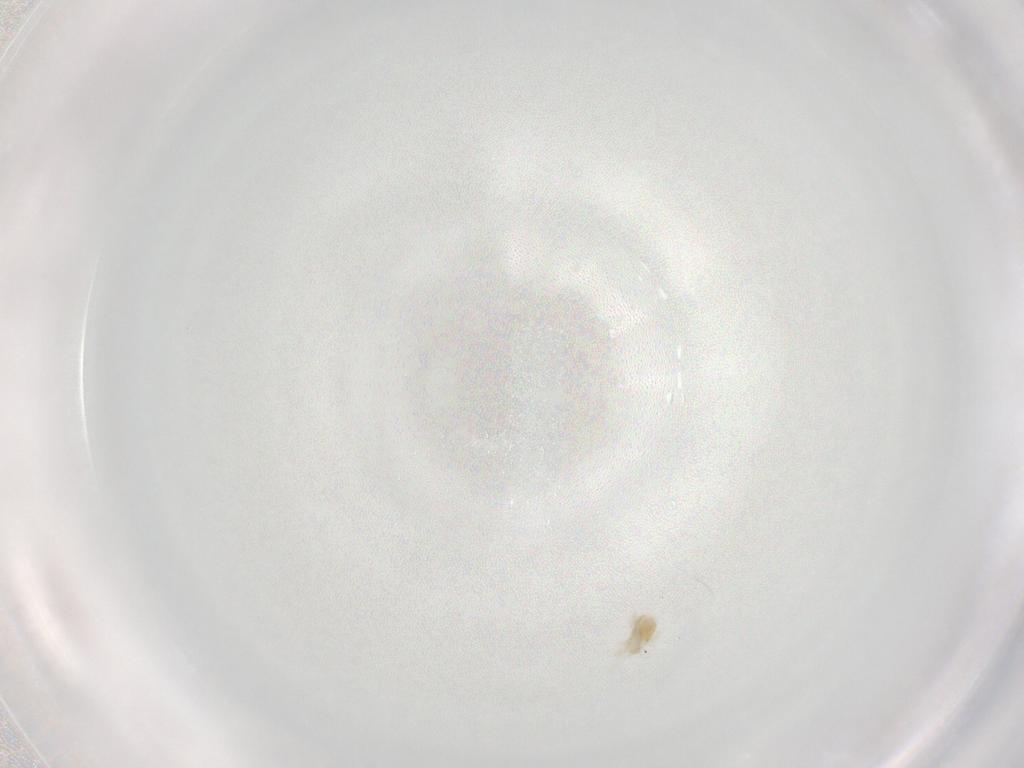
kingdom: Animalia
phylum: Arthropoda
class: Arachnida
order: Trombidiformes
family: Eupodidae
